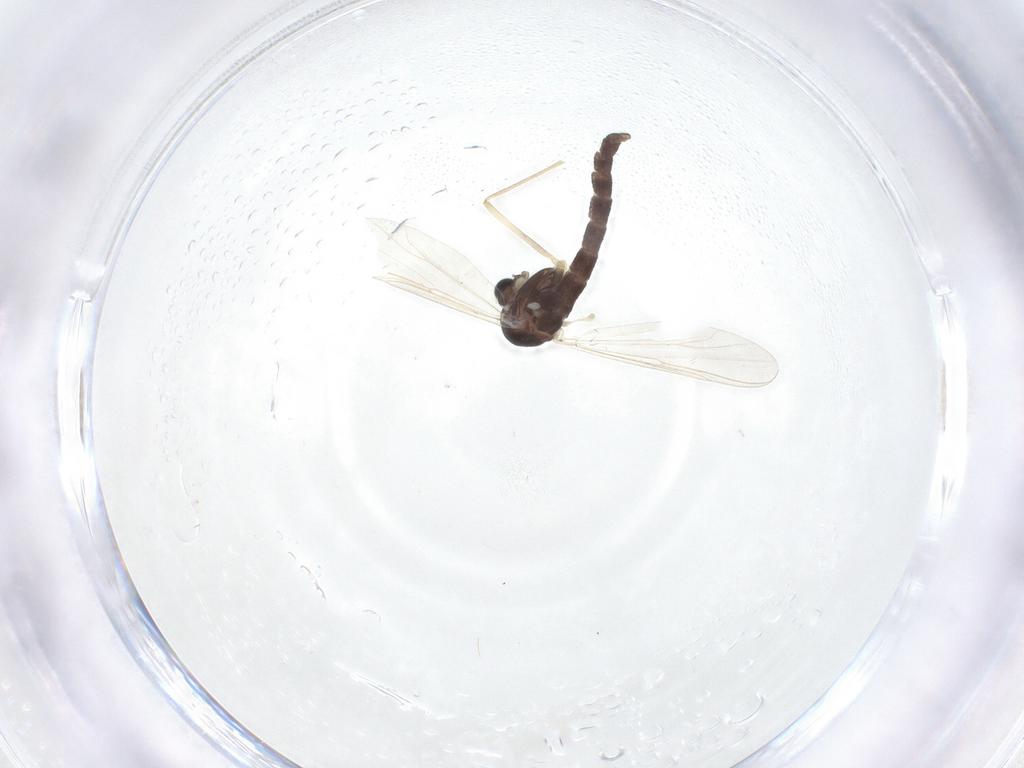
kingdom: Animalia
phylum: Arthropoda
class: Insecta
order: Diptera
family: Chironomidae
